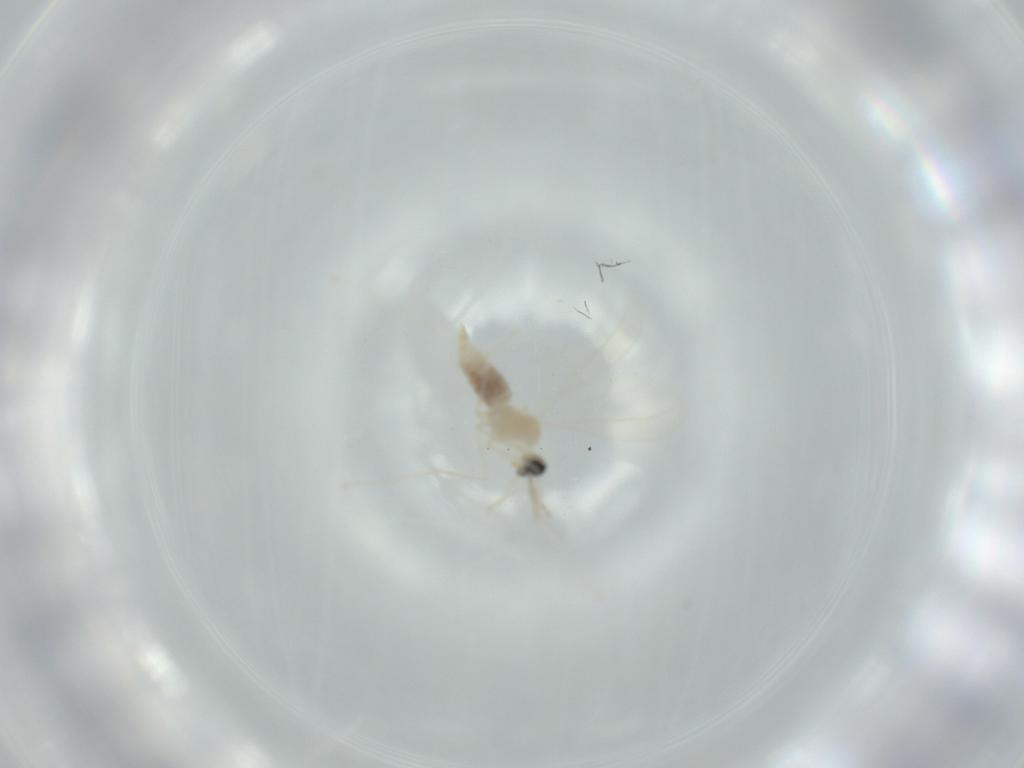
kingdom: Animalia
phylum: Arthropoda
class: Insecta
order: Diptera
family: Cecidomyiidae
